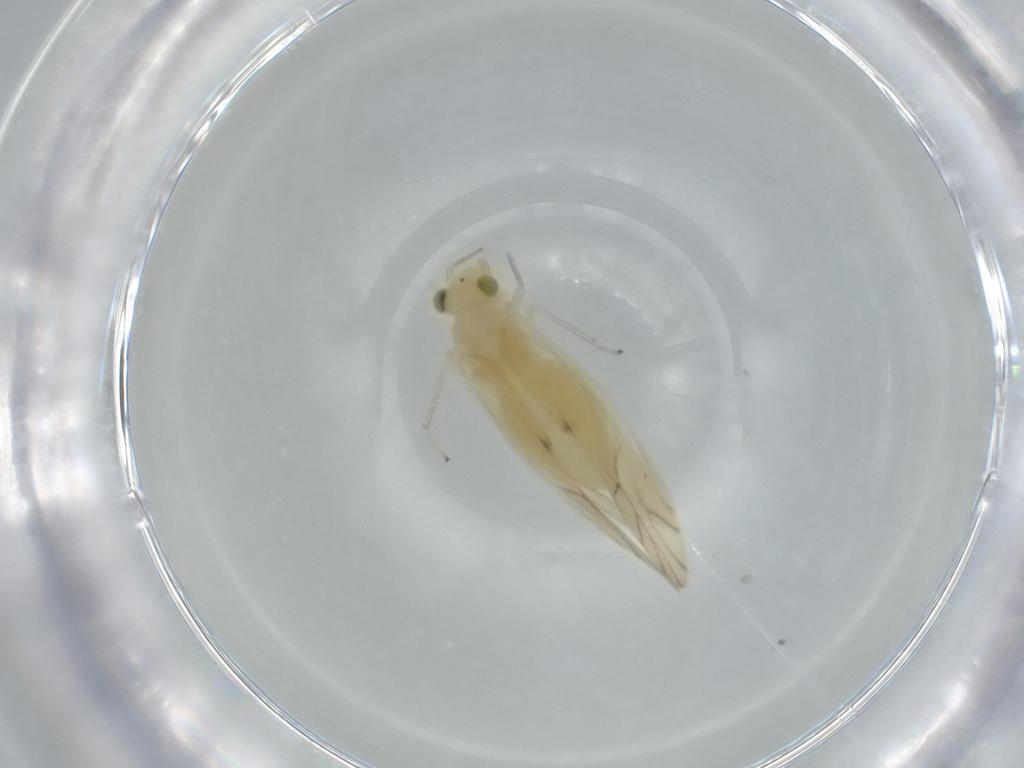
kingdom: Animalia
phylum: Arthropoda
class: Insecta
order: Psocodea
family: Caeciliusidae
